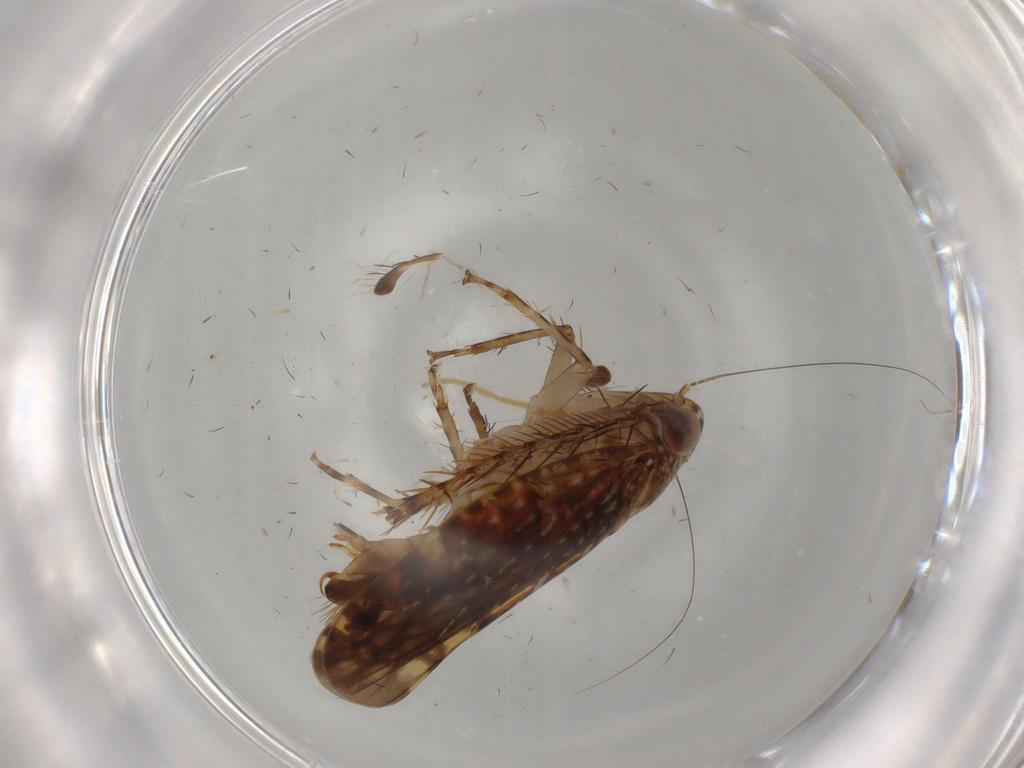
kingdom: Animalia
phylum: Arthropoda
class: Insecta
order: Hemiptera
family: Cicadellidae
